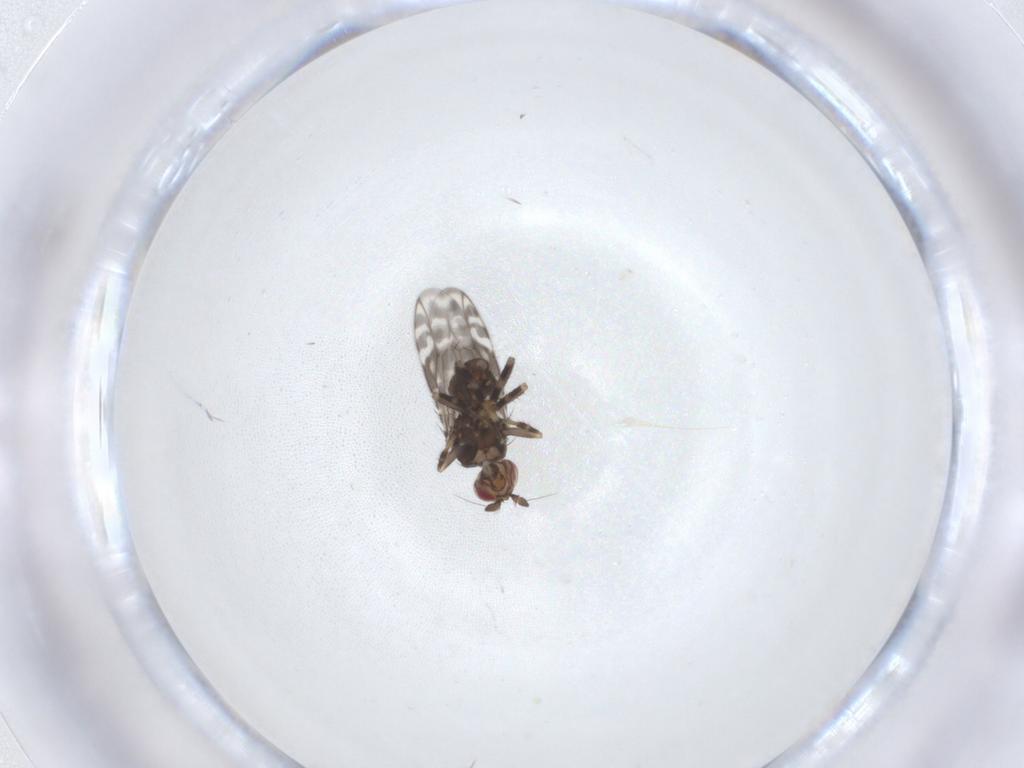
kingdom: Animalia
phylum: Arthropoda
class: Insecta
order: Diptera
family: Sphaeroceridae
